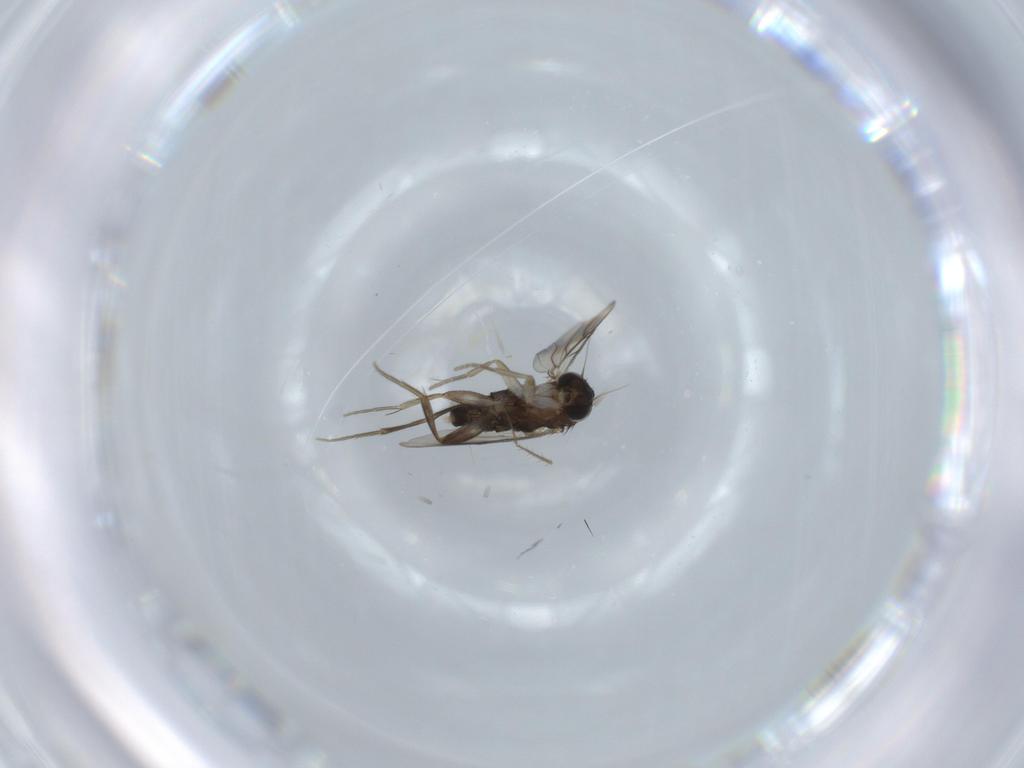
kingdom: Animalia
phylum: Arthropoda
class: Insecta
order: Diptera
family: Phoridae
